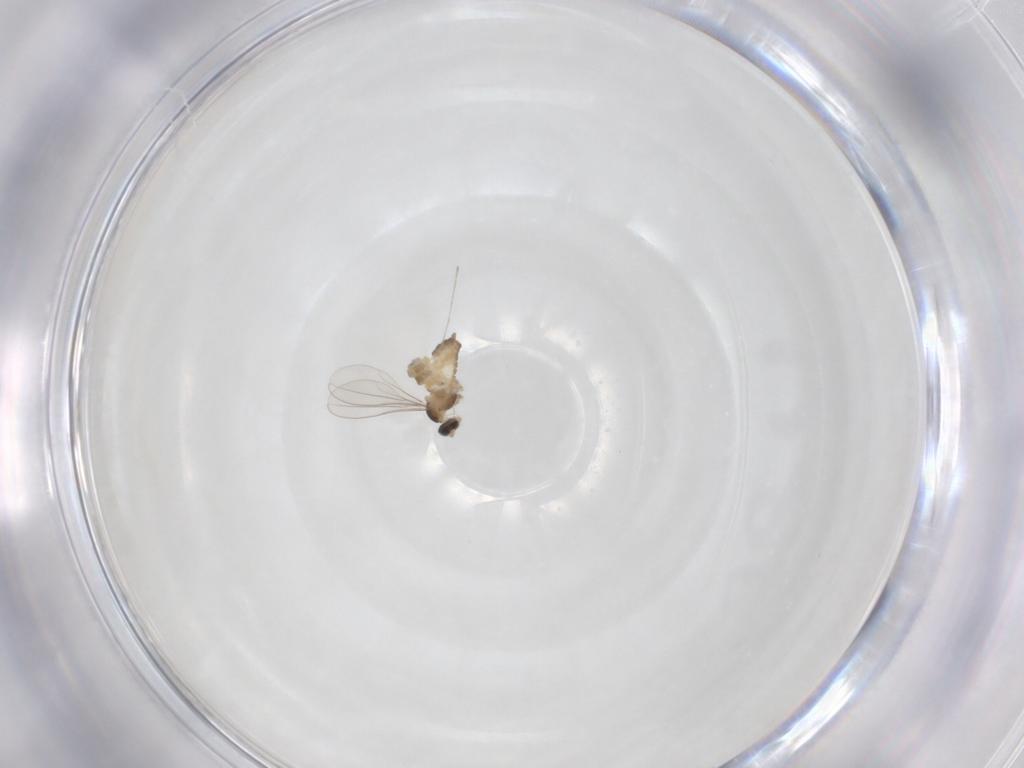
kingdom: Animalia
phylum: Arthropoda
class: Insecta
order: Diptera
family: Cecidomyiidae
